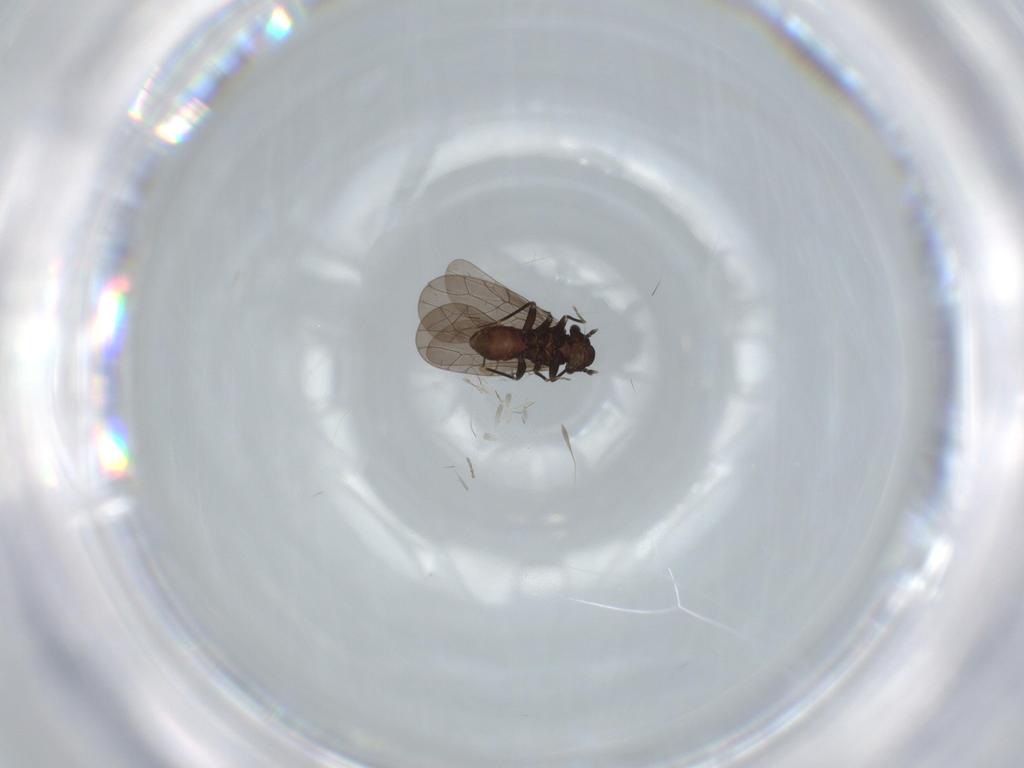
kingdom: Animalia
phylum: Arthropoda
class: Insecta
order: Psocodea
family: Lepidopsocidae
